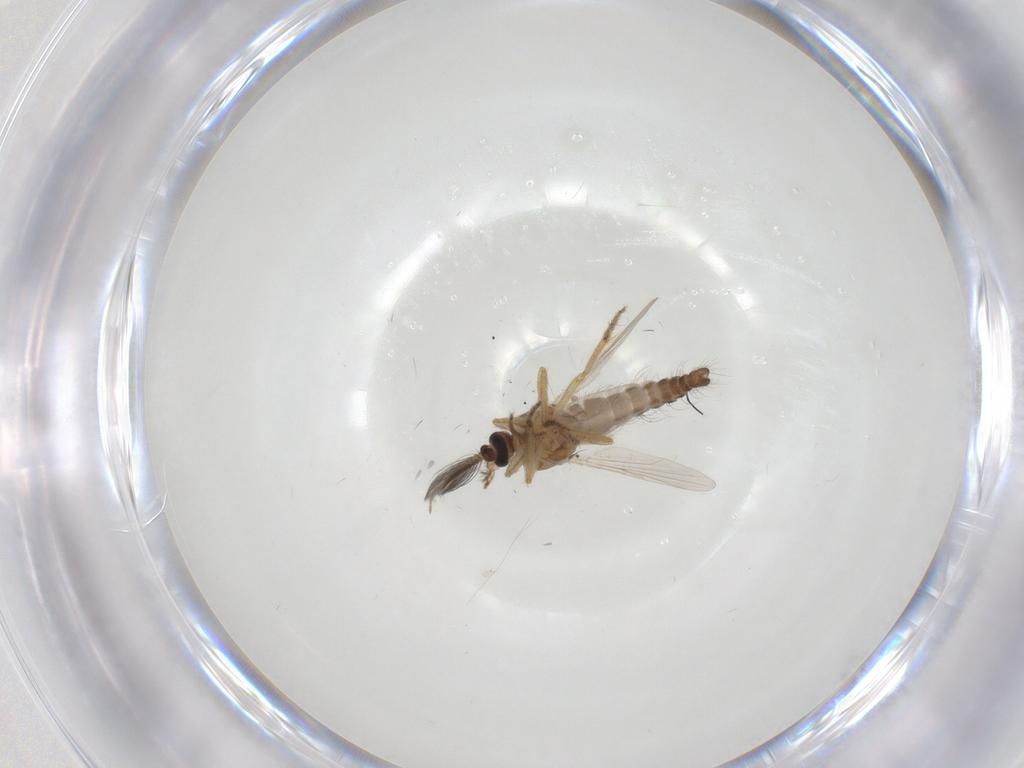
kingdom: Animalia
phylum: Arthropoda
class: Insecta
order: Diptera
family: Ceratopogonidae
